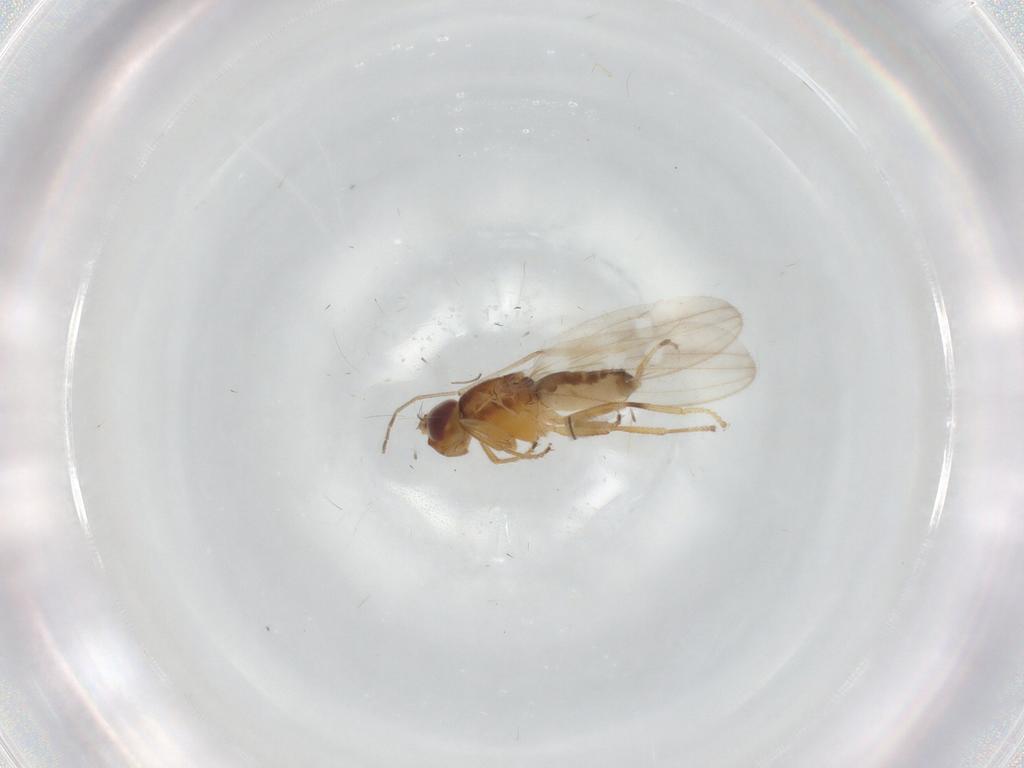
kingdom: Animalia
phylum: Arthropoda
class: Insecta
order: Diptera
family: Periscelididae
